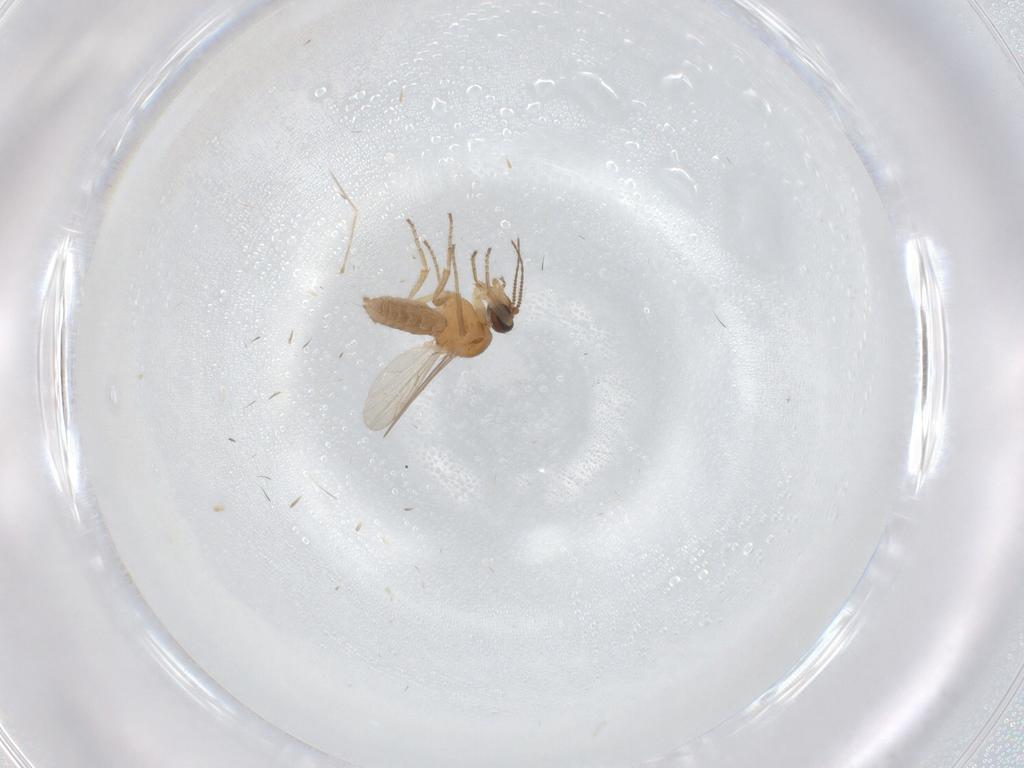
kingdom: Animalia
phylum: Arthropoda
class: Insecta
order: Diptera
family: Ceratopogonidae
